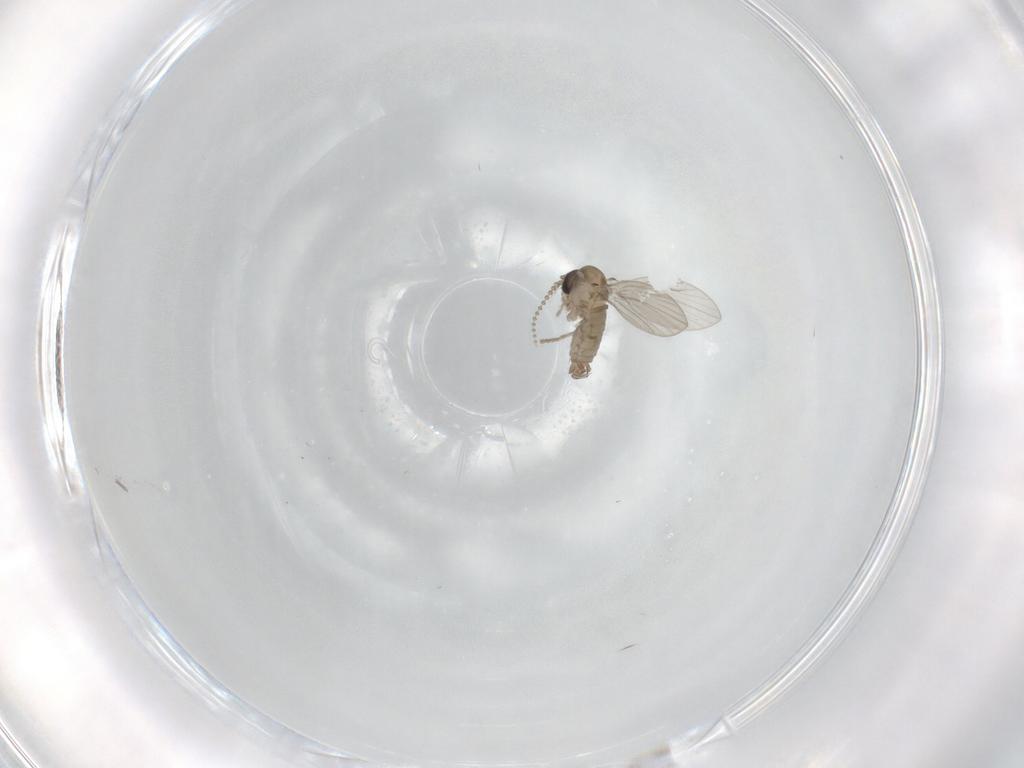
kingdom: Animalia
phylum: Arthropoda
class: Insecta
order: Diptera
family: Psychodidae
